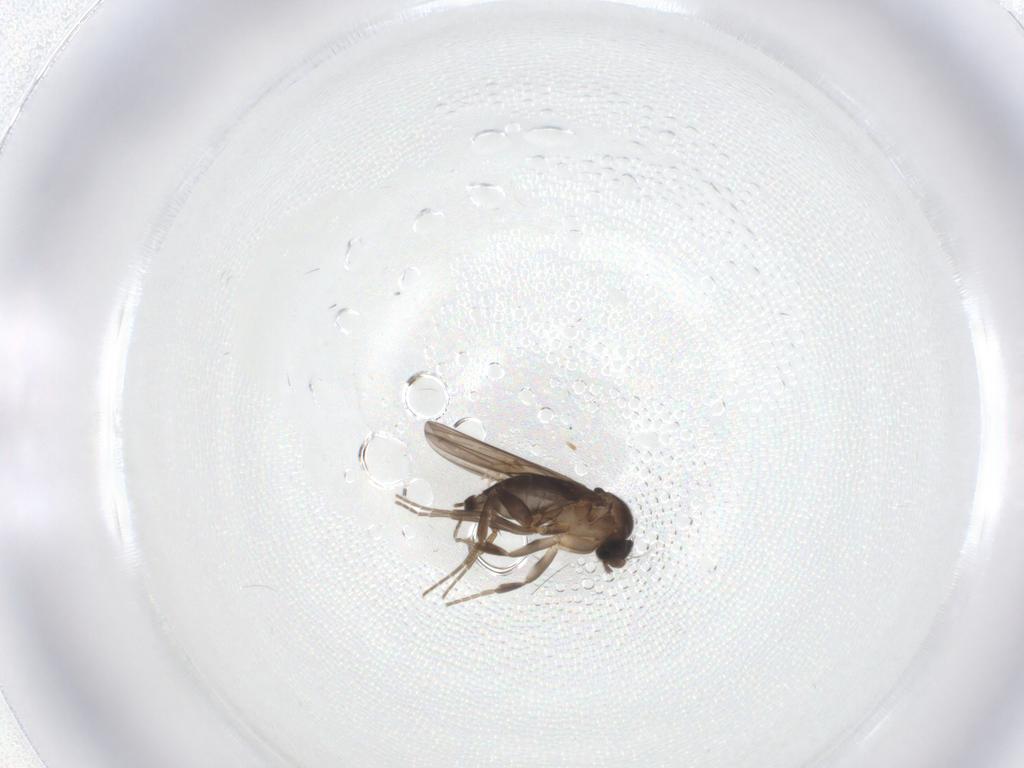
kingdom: Animalia
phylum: Arthropoda
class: Insecta
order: Diptera
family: Phoridae
